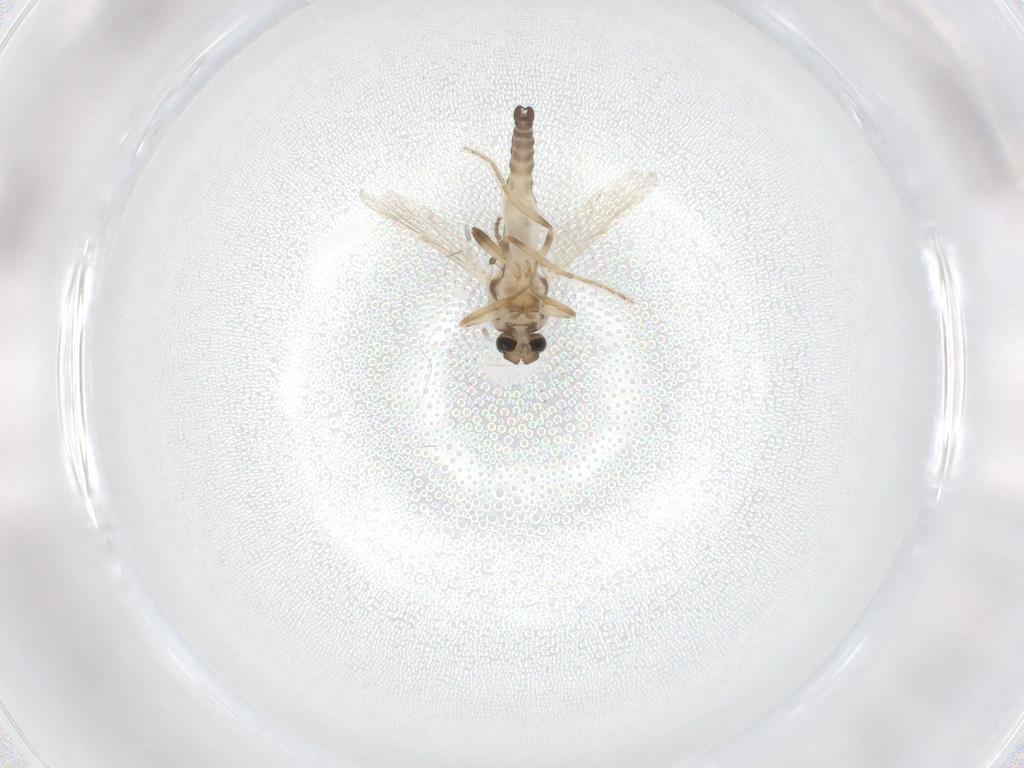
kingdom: Animalia
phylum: Arthropoda
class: Insecta
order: Diptera
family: Ceratopogonidae
